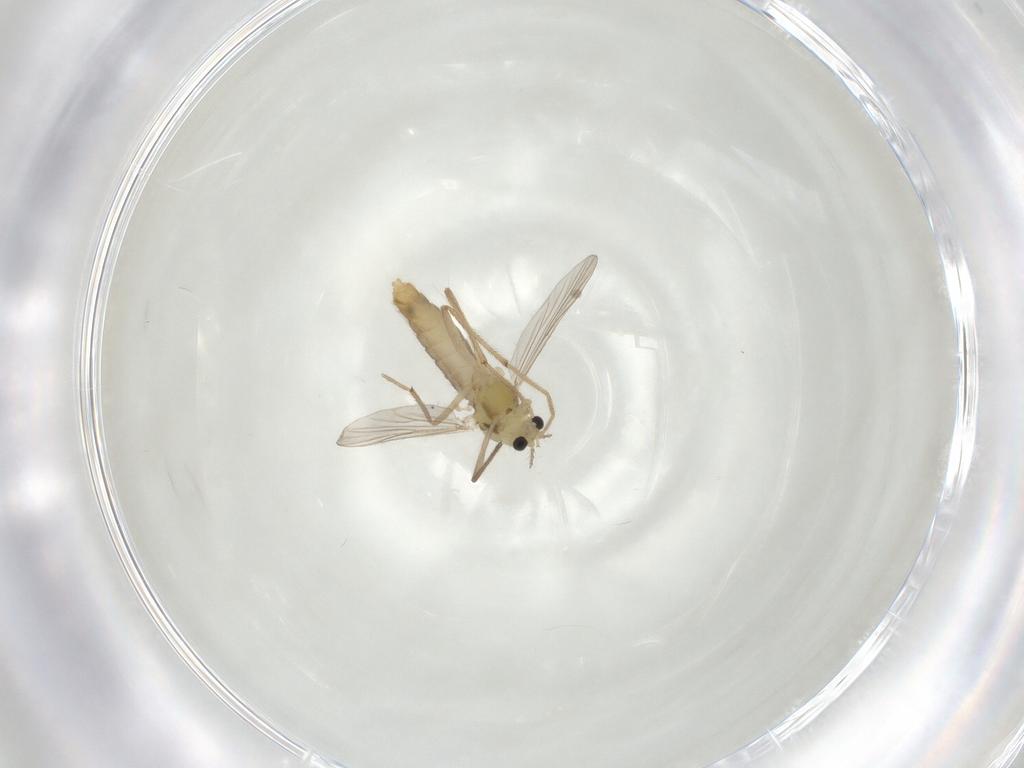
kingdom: Animalia
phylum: Arthropoda
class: Insecta
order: Diptera
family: Chironomidae
